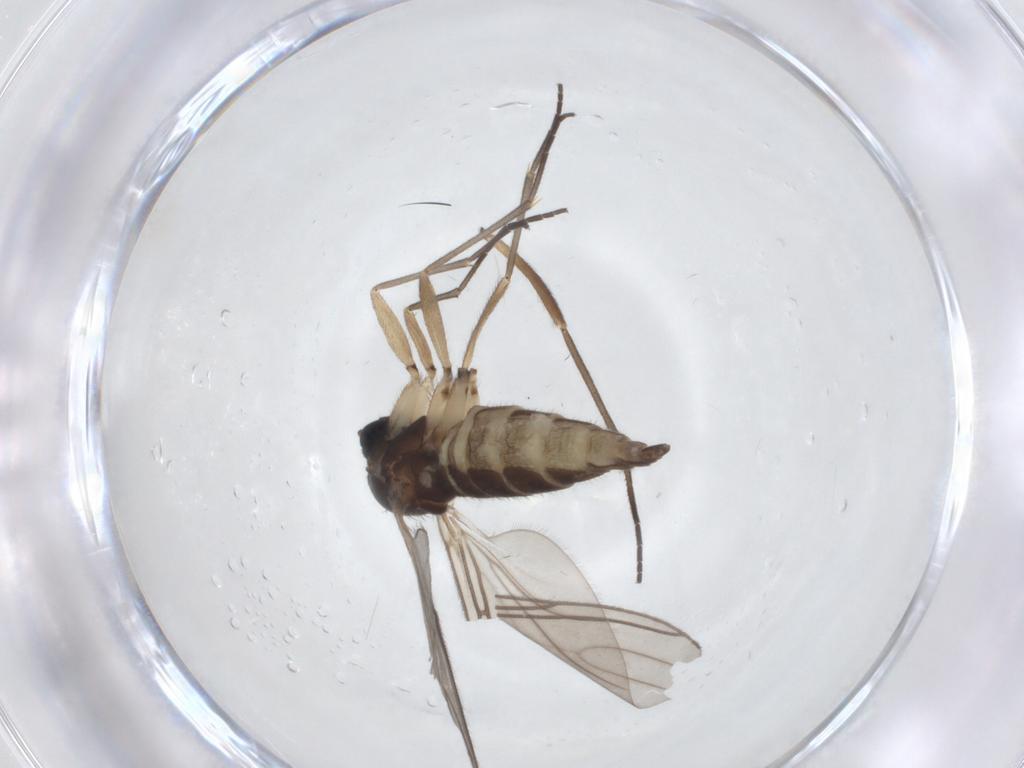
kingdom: Animalia
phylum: Arthropoda
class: Insecta
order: Diptera
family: Sciaridae
